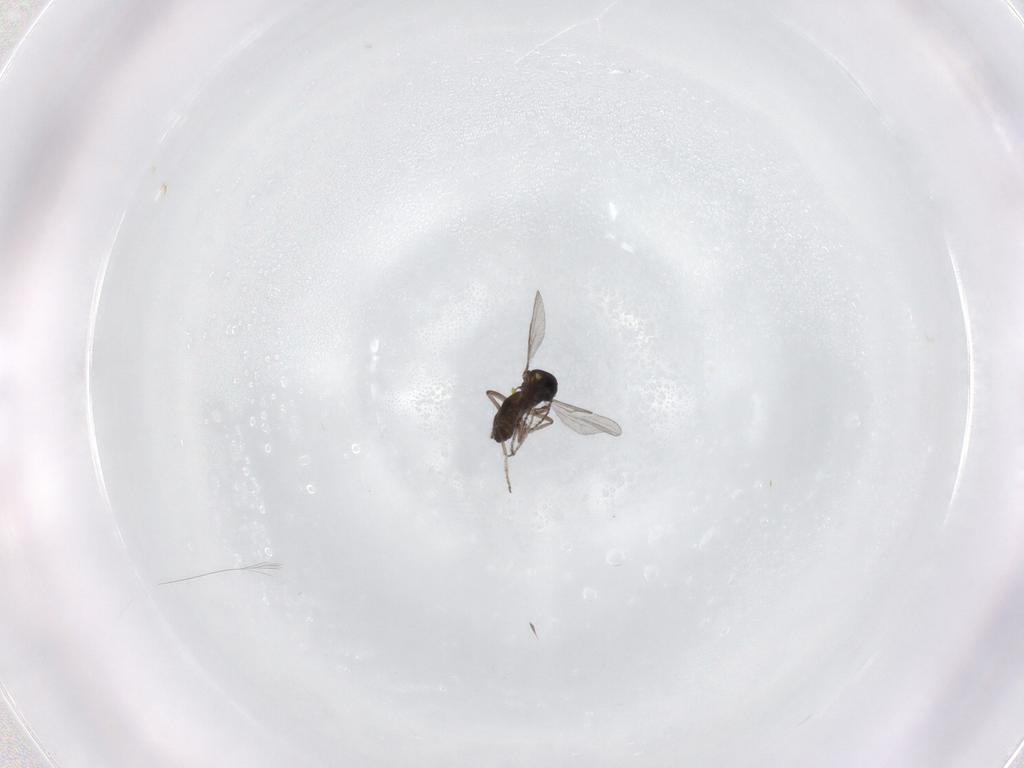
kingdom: Animalia
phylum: Arthropoda
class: Insecta
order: Diptera
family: Ceratopogonidae
